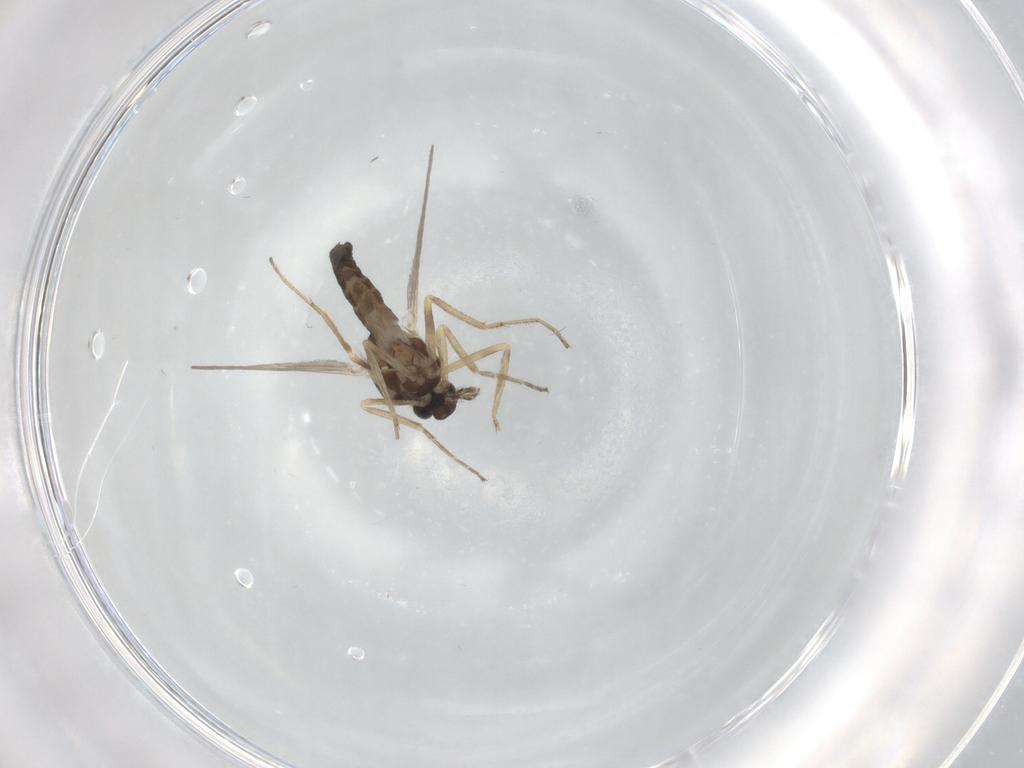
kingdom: Animalia
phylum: Arthropoda
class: Insecta
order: Diptera
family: Ceratopogonidae
